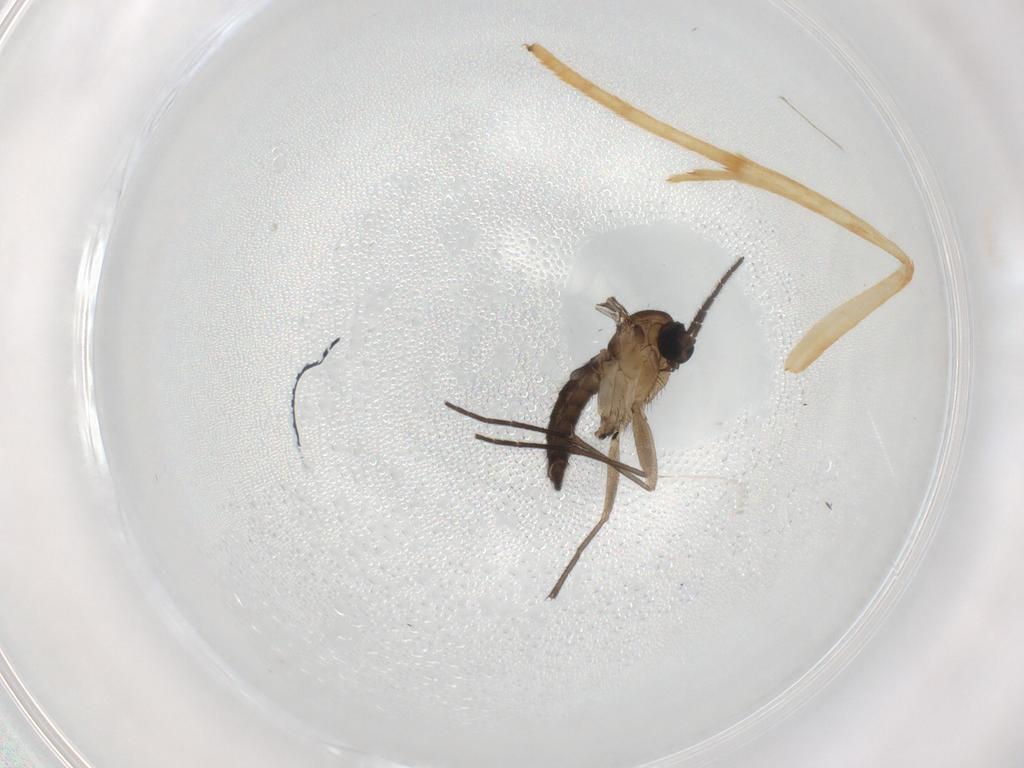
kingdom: Animalia
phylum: Arthropoda
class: Insecta
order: Diptera
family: Cecidomyiidae
